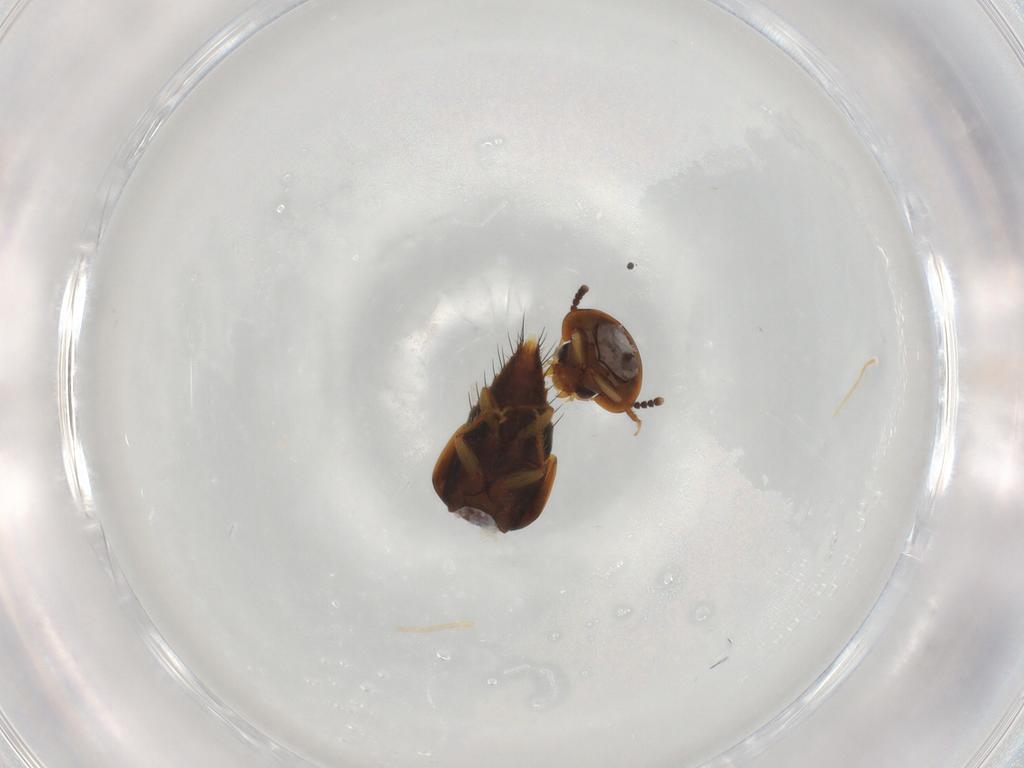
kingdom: Animalia
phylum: Arthropoda
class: Insecta
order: Coleoptera
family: Staphylinidae
